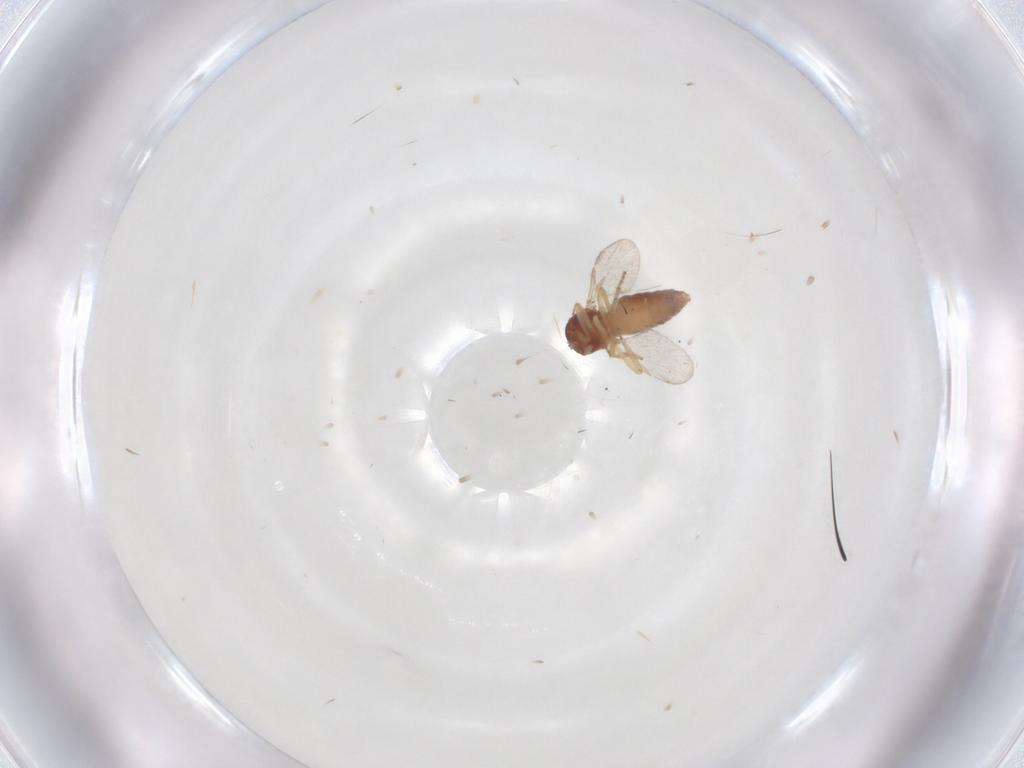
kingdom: Animalia
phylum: Arthropoda
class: Insecta
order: Diptera
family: Ceratopogonidae
